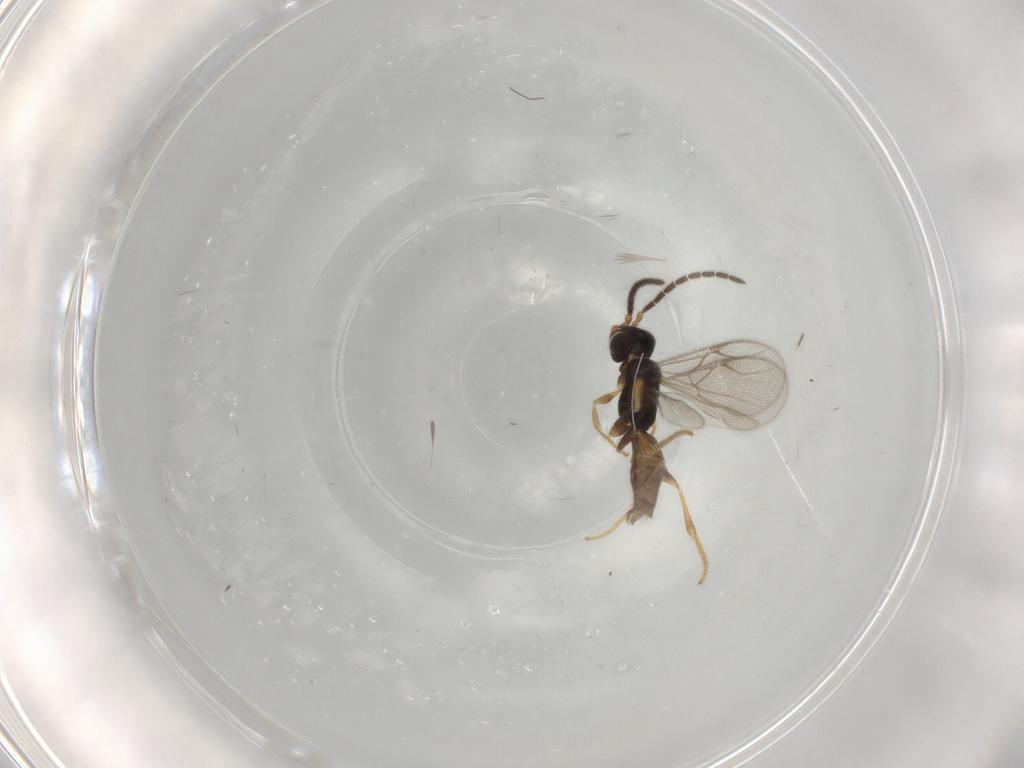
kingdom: Animalia
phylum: Arthropoda
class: Insecta
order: Hymenoptera
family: Dryinidae
